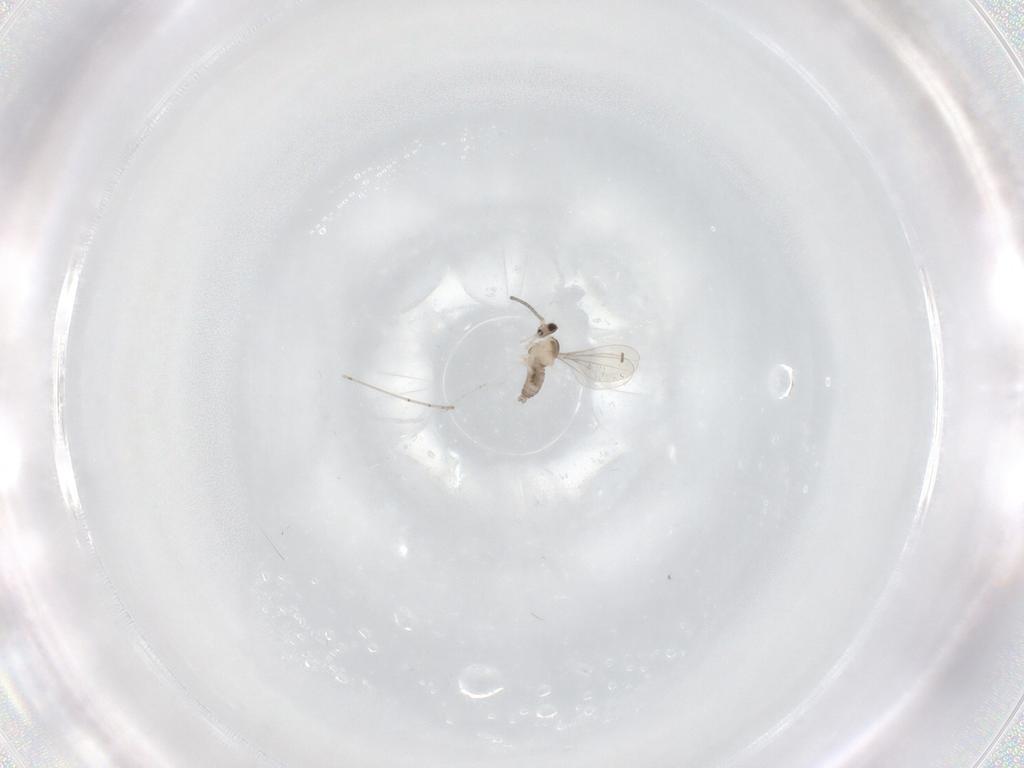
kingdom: Animalia
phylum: Arthropoda
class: Insecta
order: Diptera
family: Cecidomyiidae
